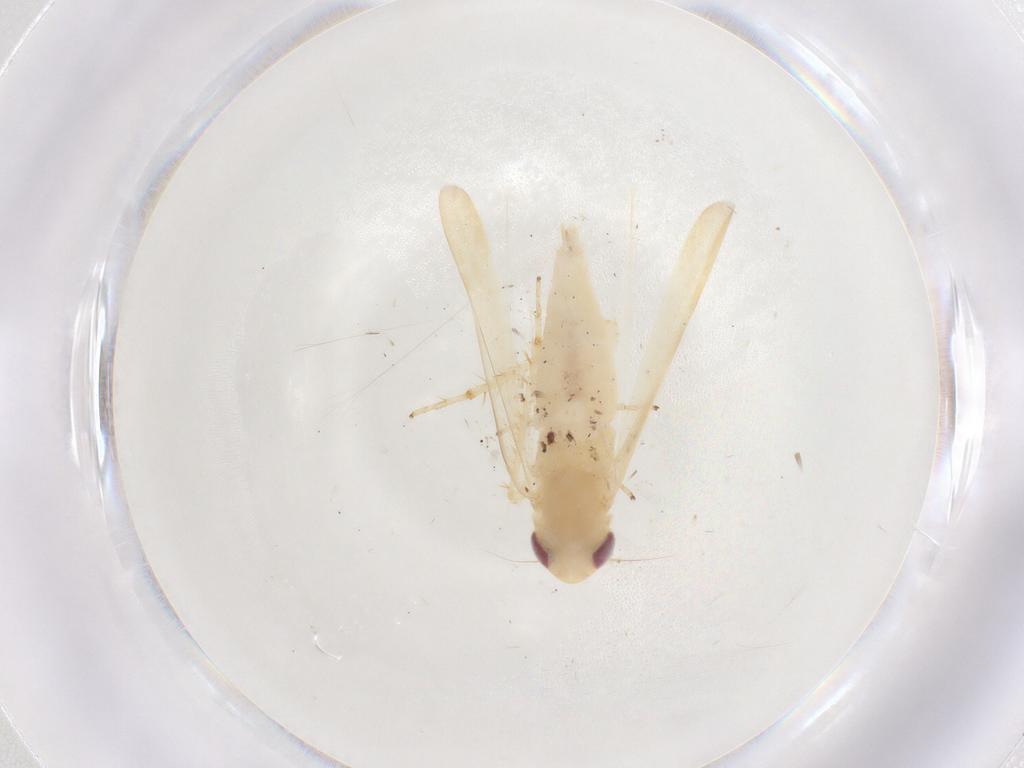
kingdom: Animalia
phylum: Arthropoda
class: Insecta
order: Hemiptera
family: Cicadellidae
